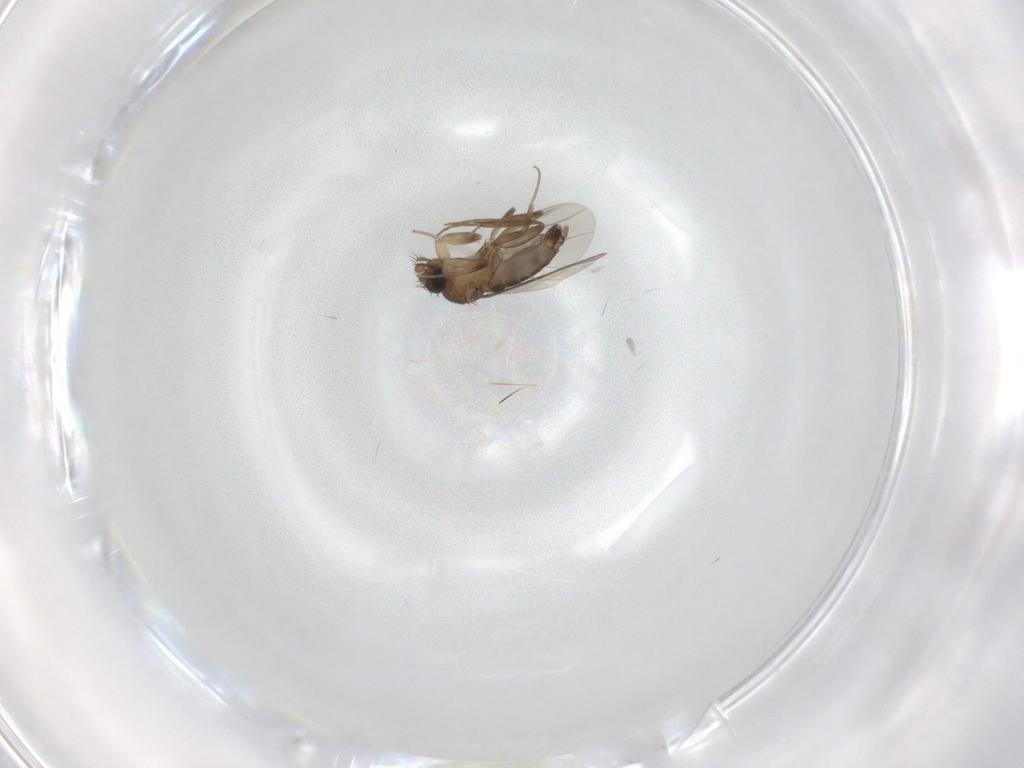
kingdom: Animalia
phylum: Arthropoda
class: Insecta
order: Diptera
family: Phoridae
